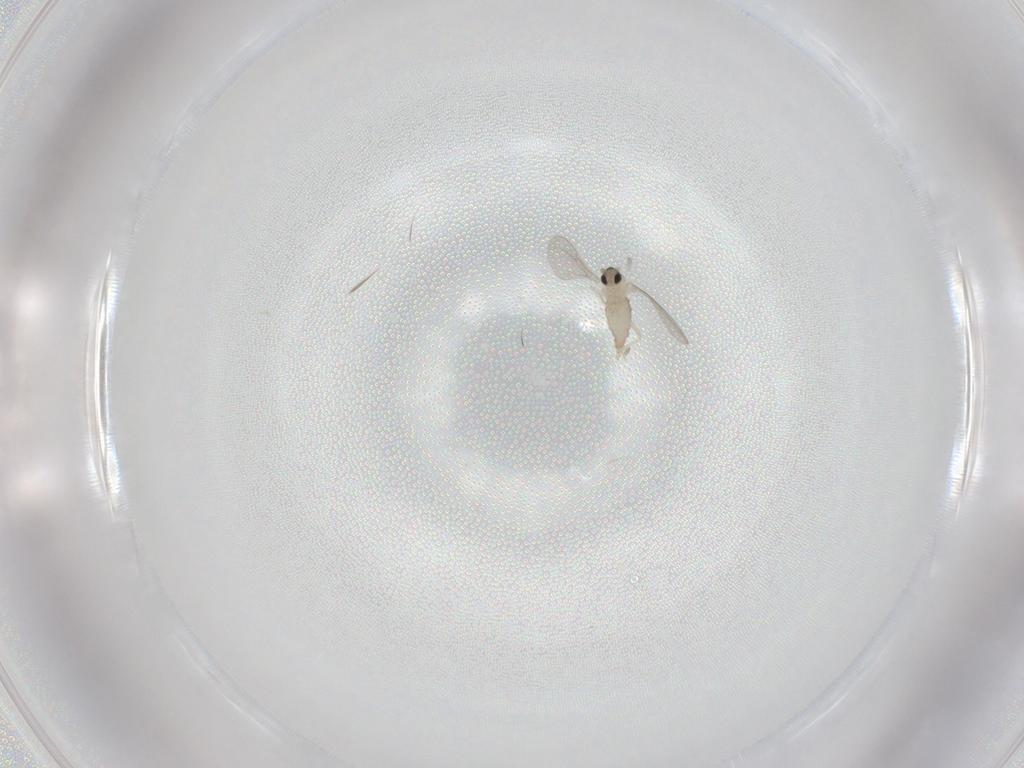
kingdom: Animalia
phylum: Arthropoda
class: Insecta
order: Diptera
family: Cecidomyiidae
